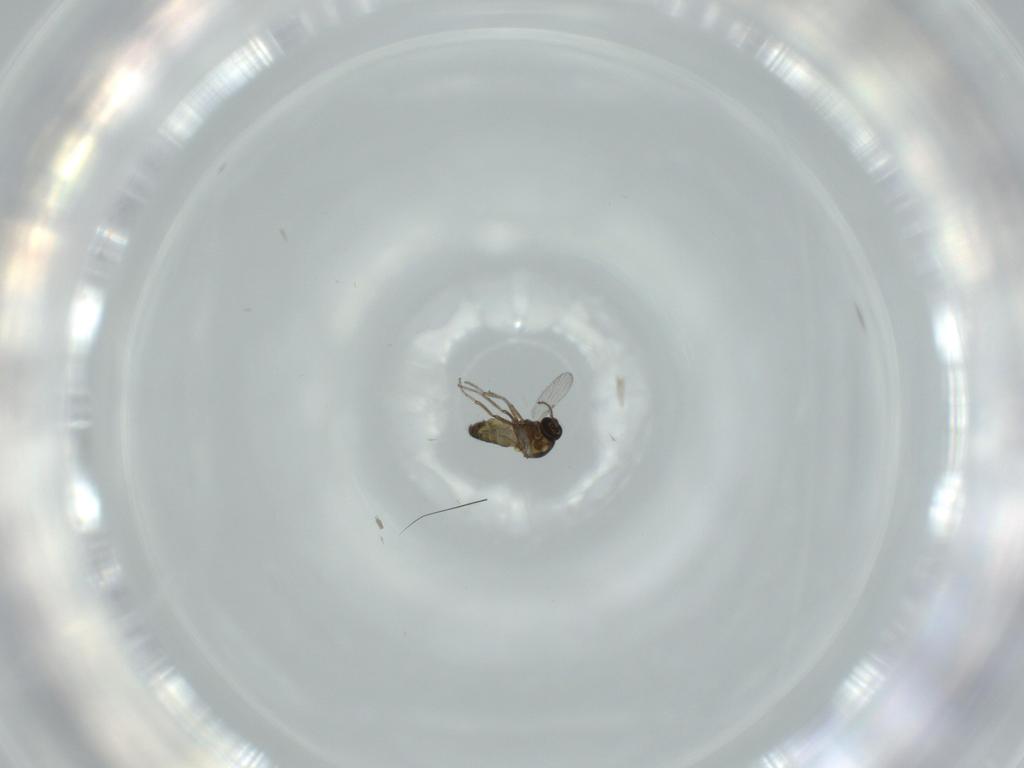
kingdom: Animalia
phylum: Arthropoda
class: Insecta
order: Diptera
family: Ceratopogonidae
